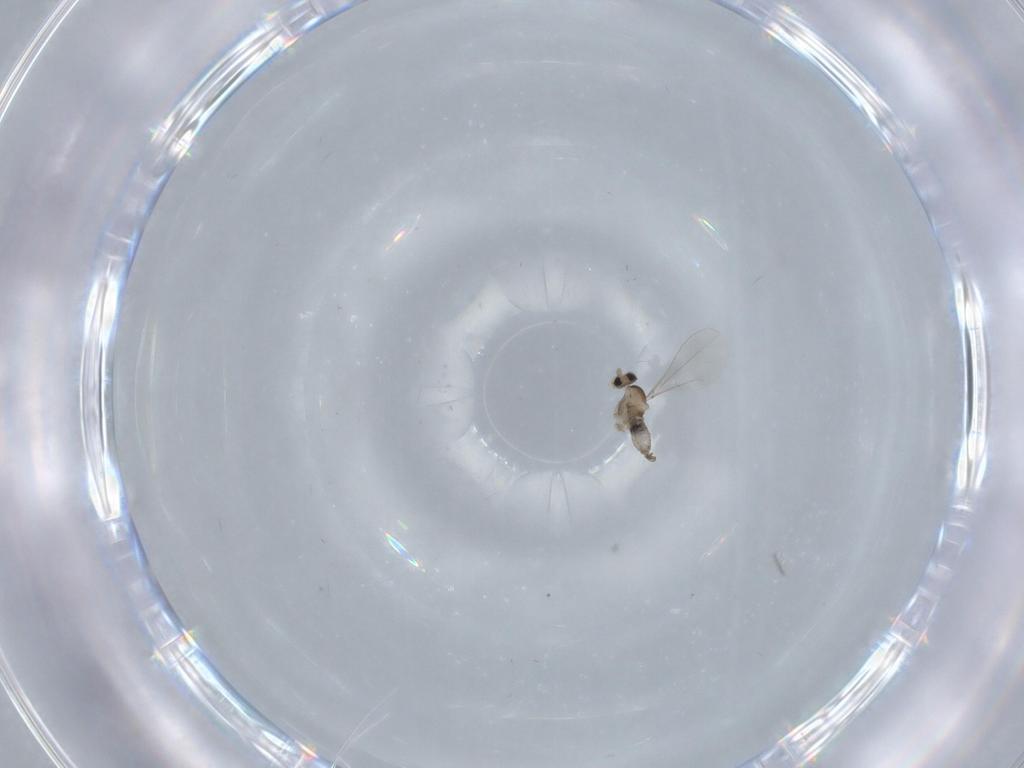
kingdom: Animalia
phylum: Arthropoda
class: Insecta
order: Diptera
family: Cecidomyiidae
